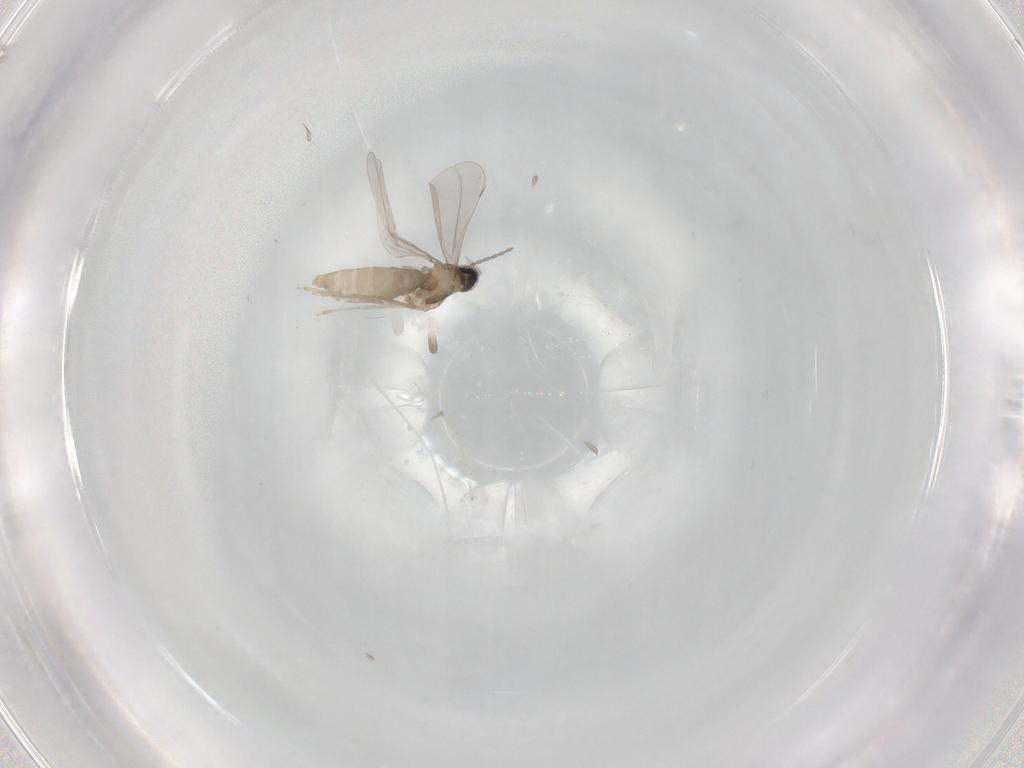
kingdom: Animalia
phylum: Arthropoda
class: Insecta
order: Diptera
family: Cecidomyiidae
